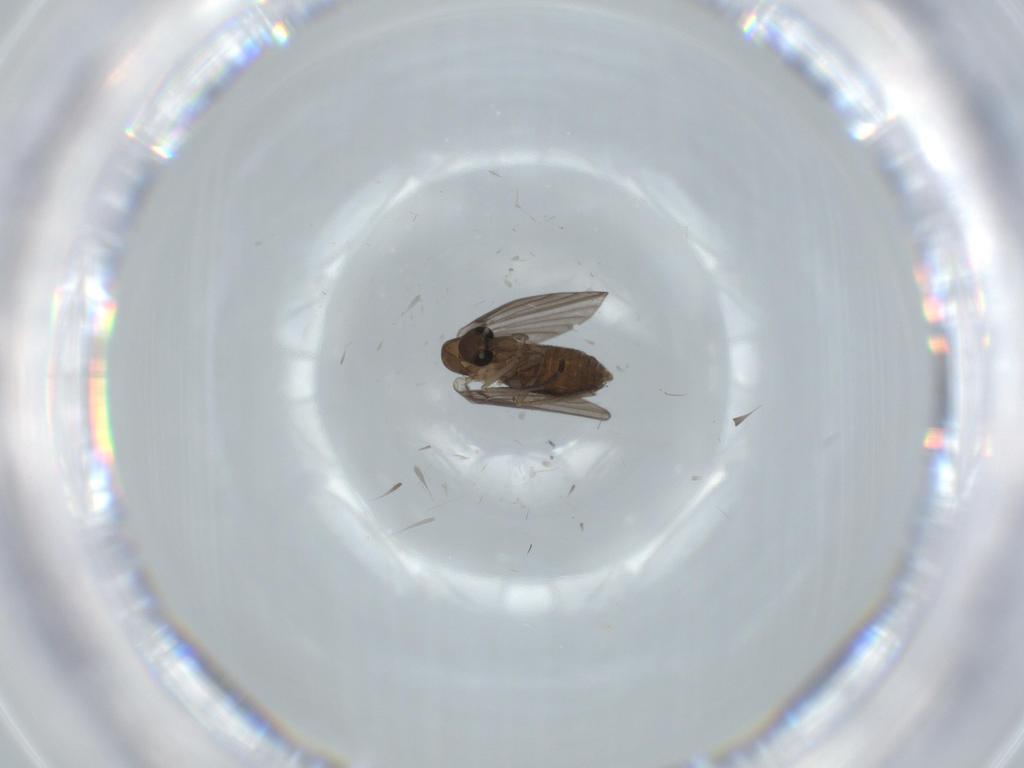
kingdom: Animalia
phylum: Arthropoda
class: Insecta
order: Diptera
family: Psychodidae
